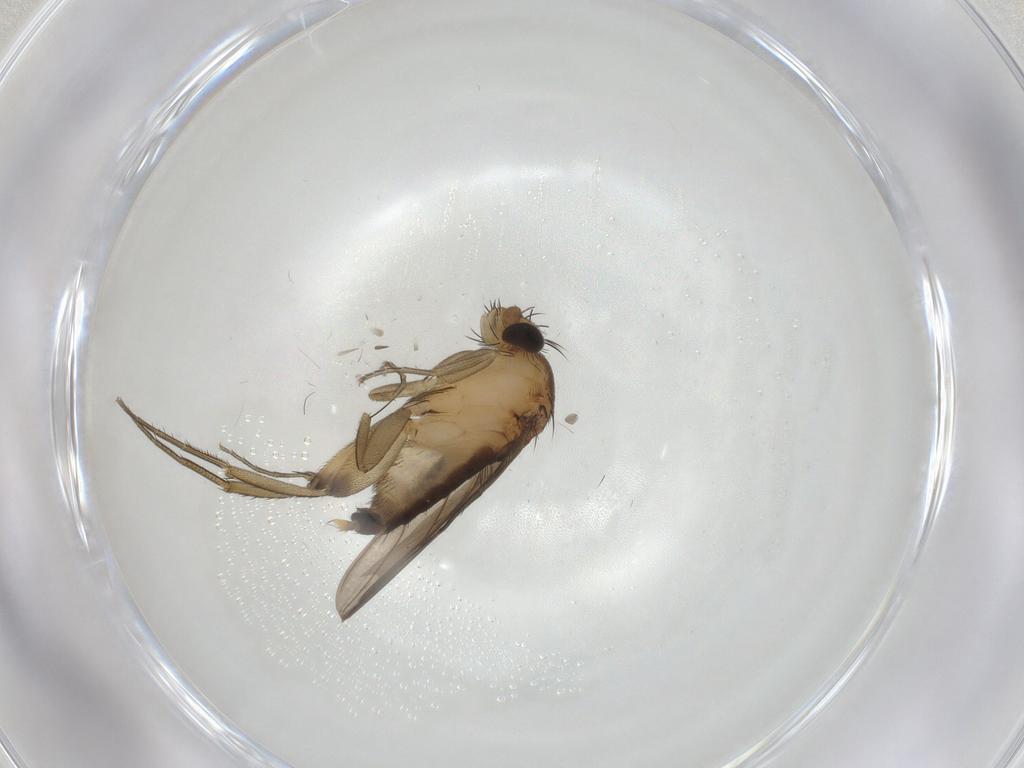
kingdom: Animalia
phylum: Arthropoda
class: Insecta
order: Diptera
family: Phoridae
